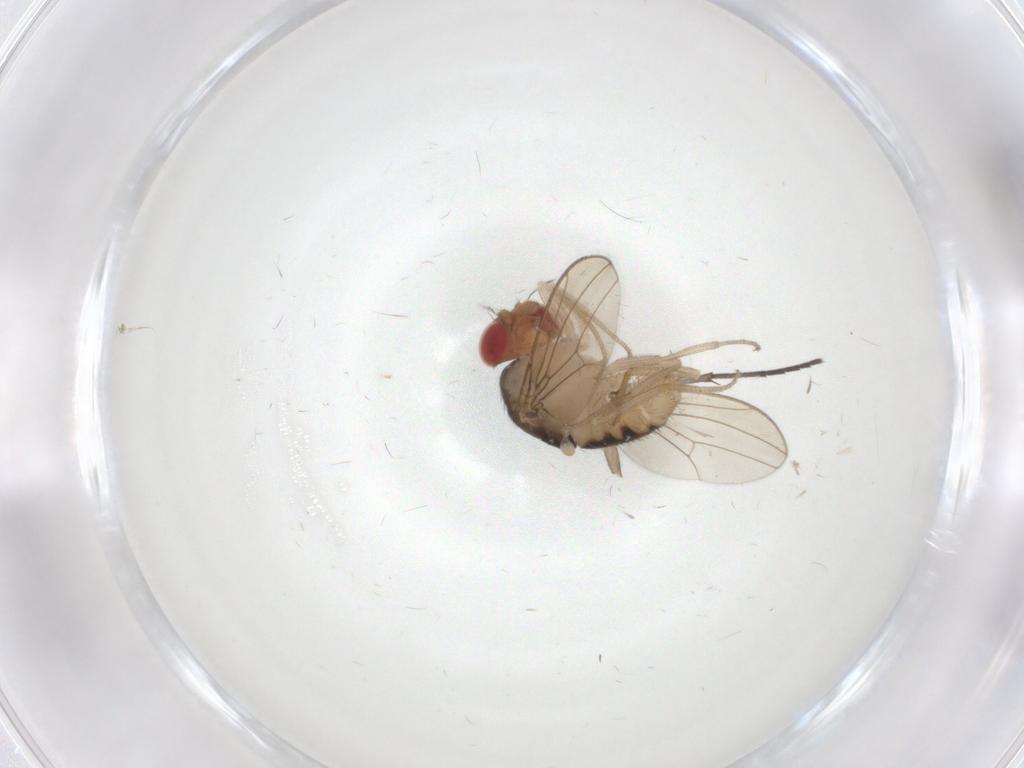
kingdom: Animalia
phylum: Arthropoda
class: Insecta
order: Diptera
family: Drosophilidae
